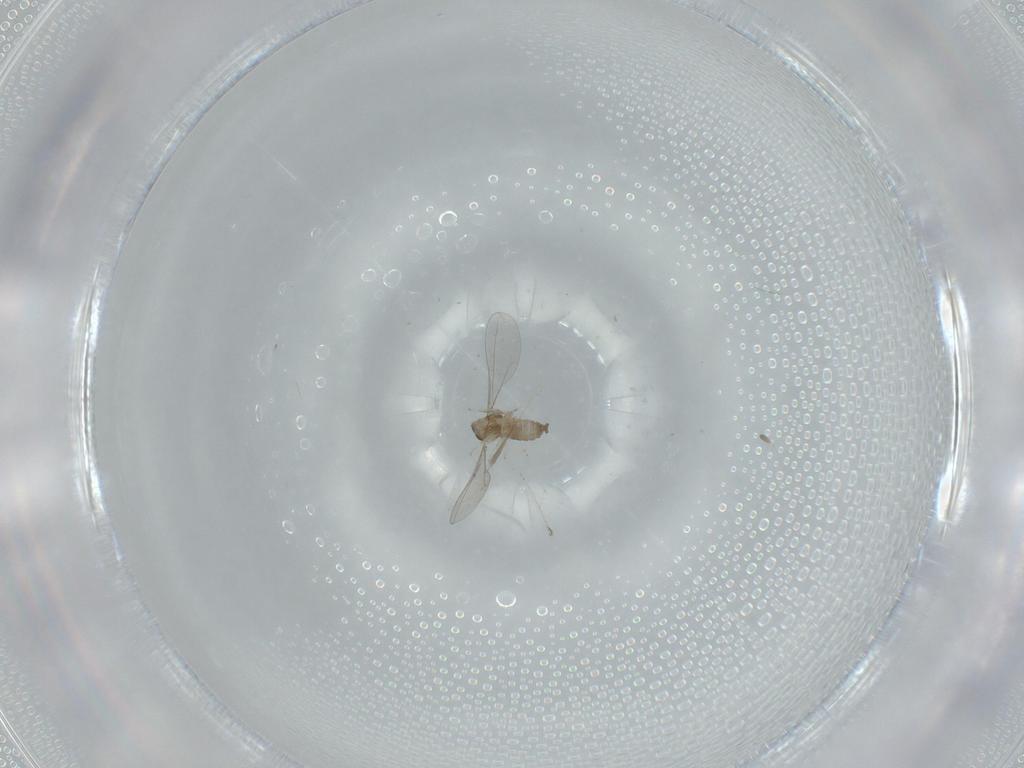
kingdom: Animalia
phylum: Arthropoda
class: Insecta
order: Diptera
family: Cecidomyiidae
